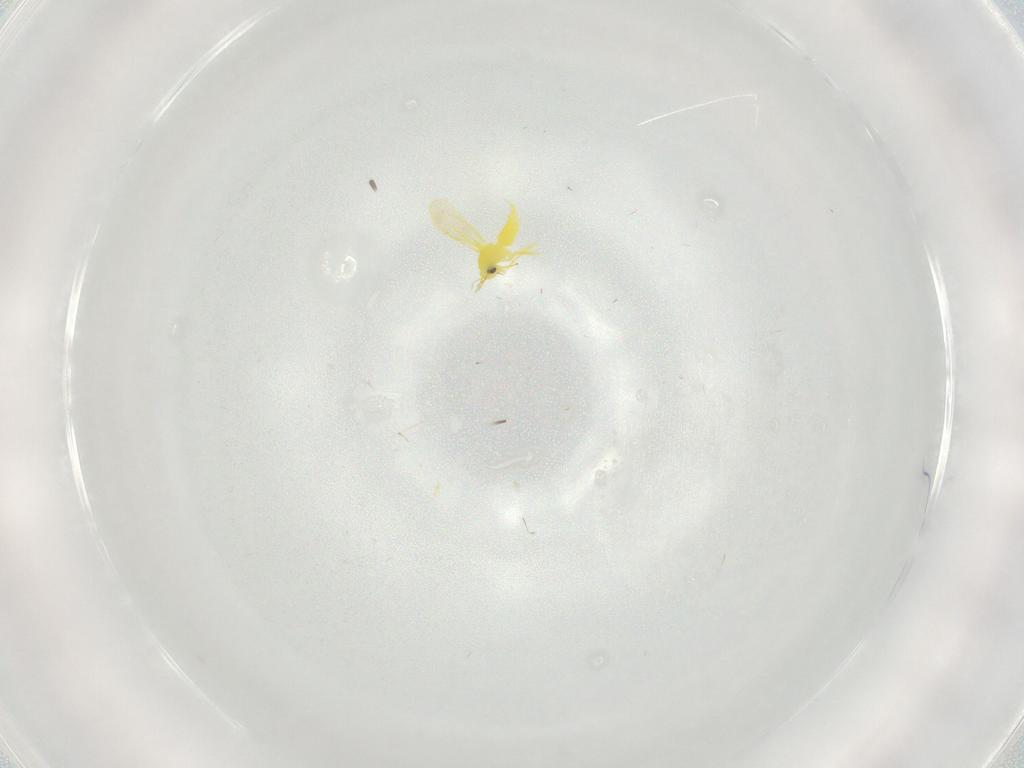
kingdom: Animalia
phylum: Arthropoda
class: Insecta
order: Hemiptera
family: Aleyrodidae
